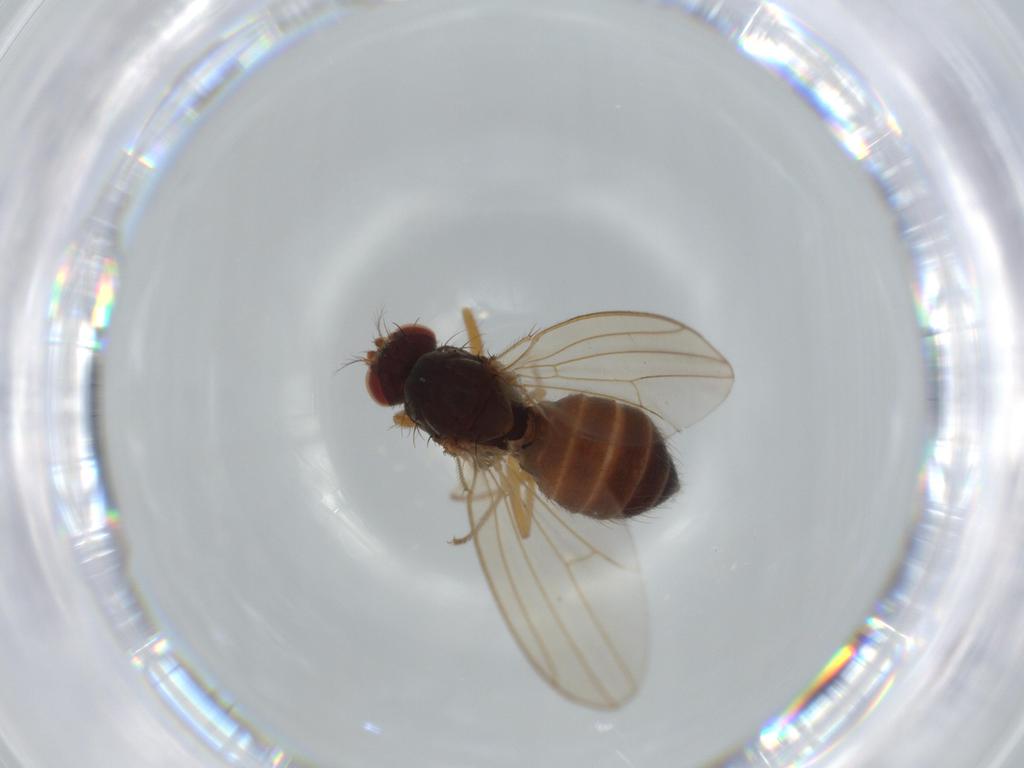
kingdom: Animalia
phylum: Arthropoda
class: Insecta
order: Diptera
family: Drosophilidae
